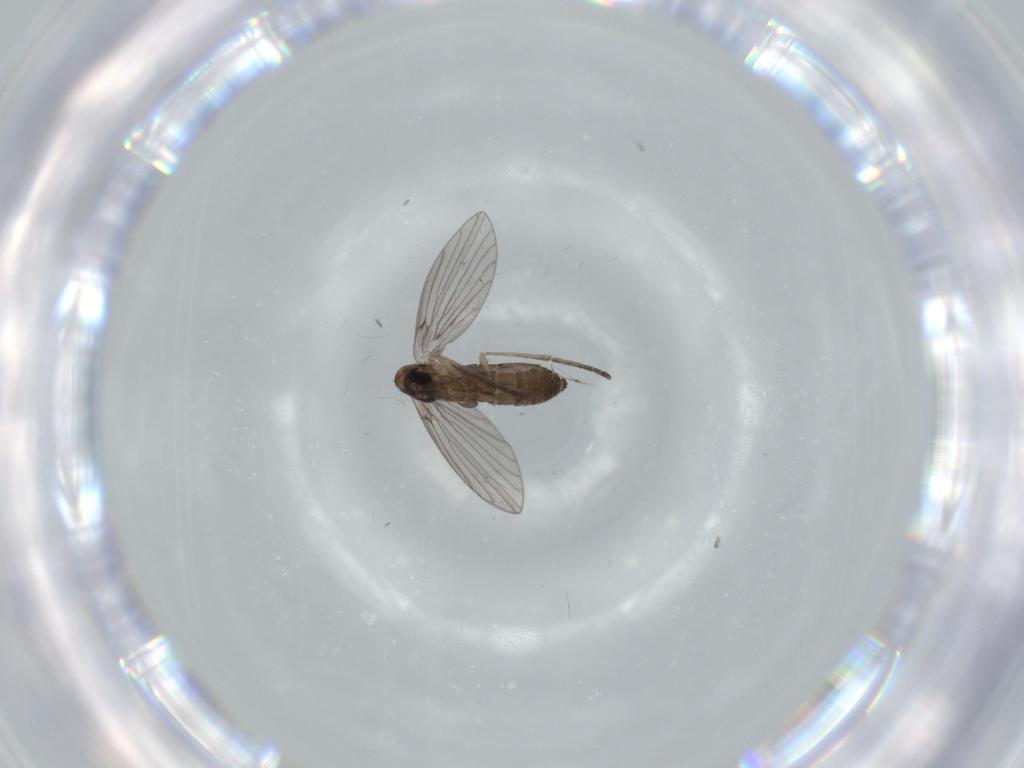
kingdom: Animalia
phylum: Arthropoda
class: Insecta
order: Diptera
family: Psychodidae
